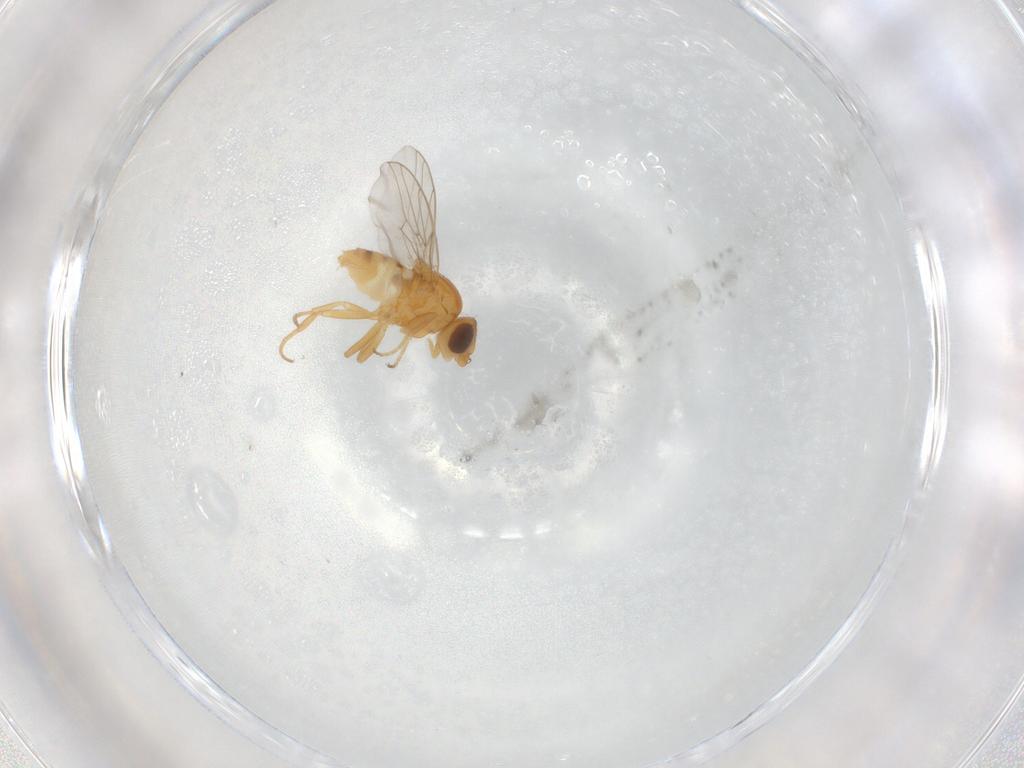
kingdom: Animalia
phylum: Arthropoda
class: Insecta
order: Diptera
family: Chloropidae
